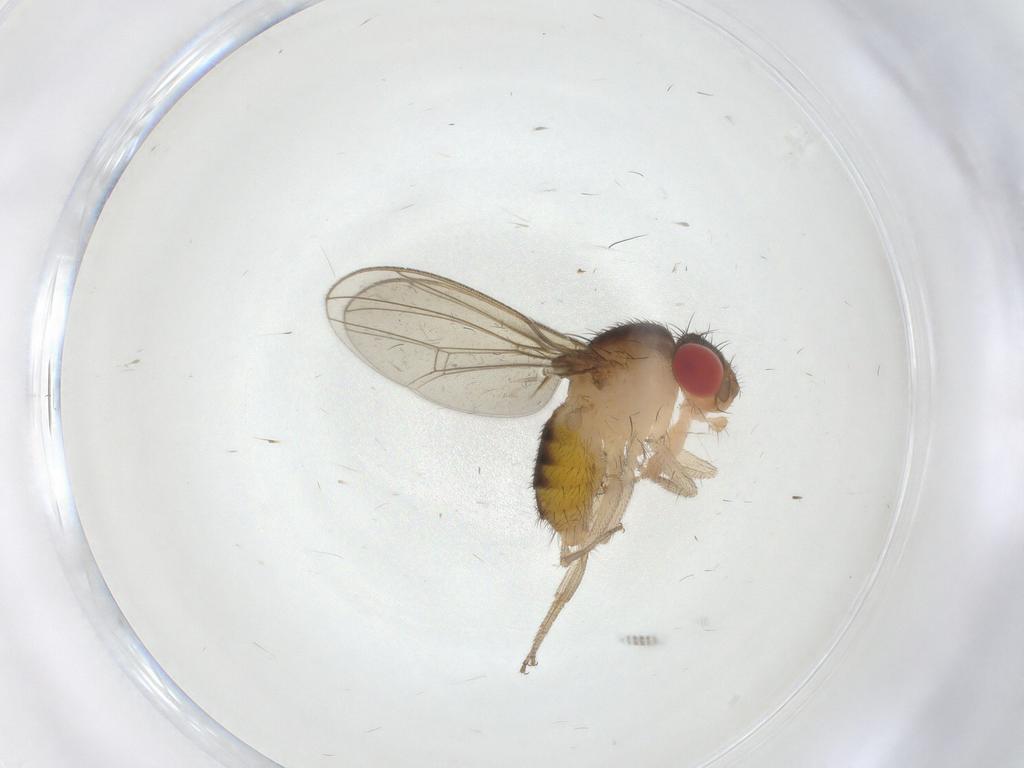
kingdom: Animalia
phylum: Arthropoda
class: Insecta
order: Diptera
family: Drosophilidae
